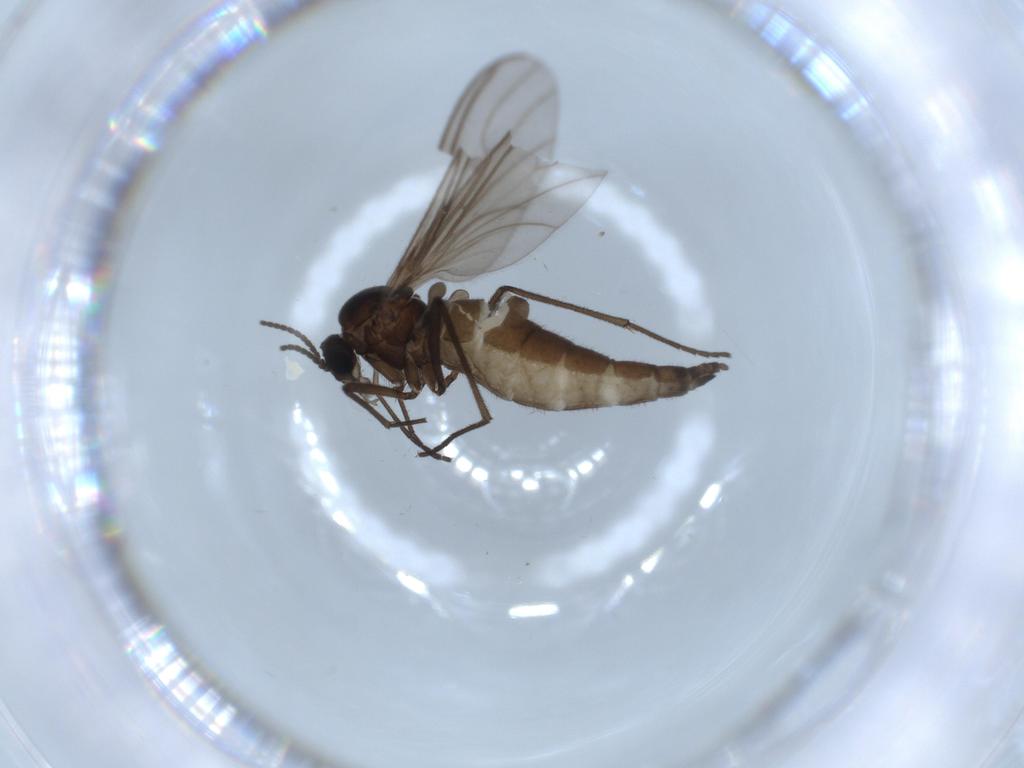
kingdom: Animalia
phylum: Arthropoda
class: Insecta
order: Diptera
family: Sciaridae
